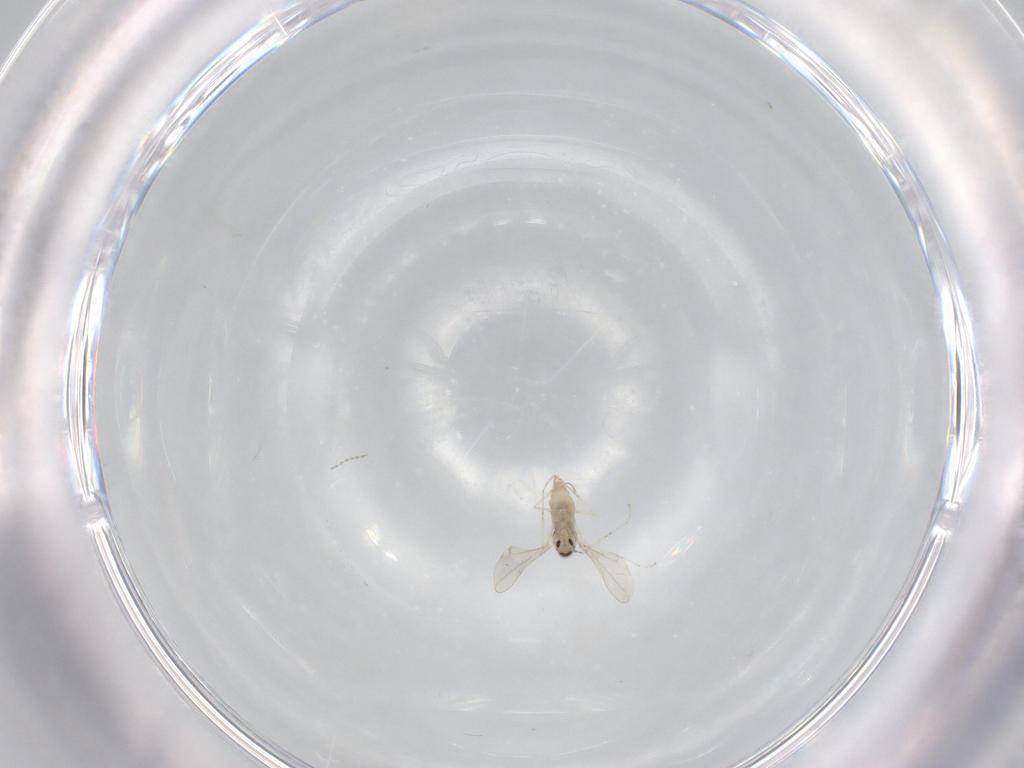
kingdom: Animalia
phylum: Arthropoda
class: Insecta
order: Diptera
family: Cecidomyiidae
